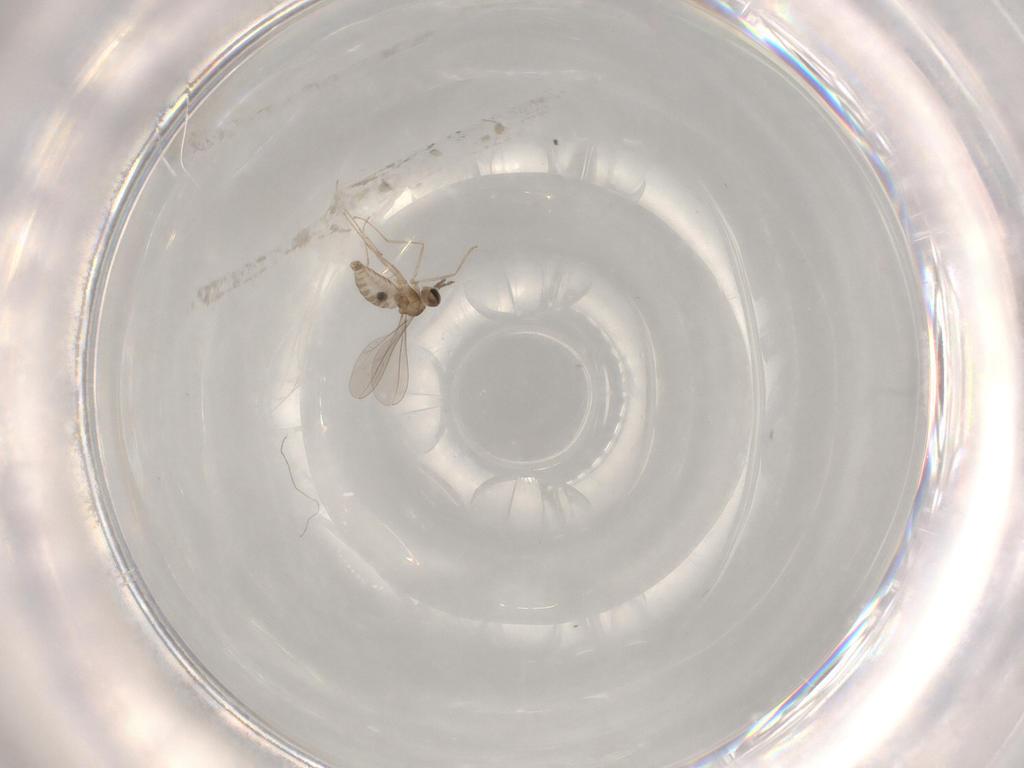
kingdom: Animalia
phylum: Arthropoda
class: Insecta
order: Diptera
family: Cecidomyiidae
